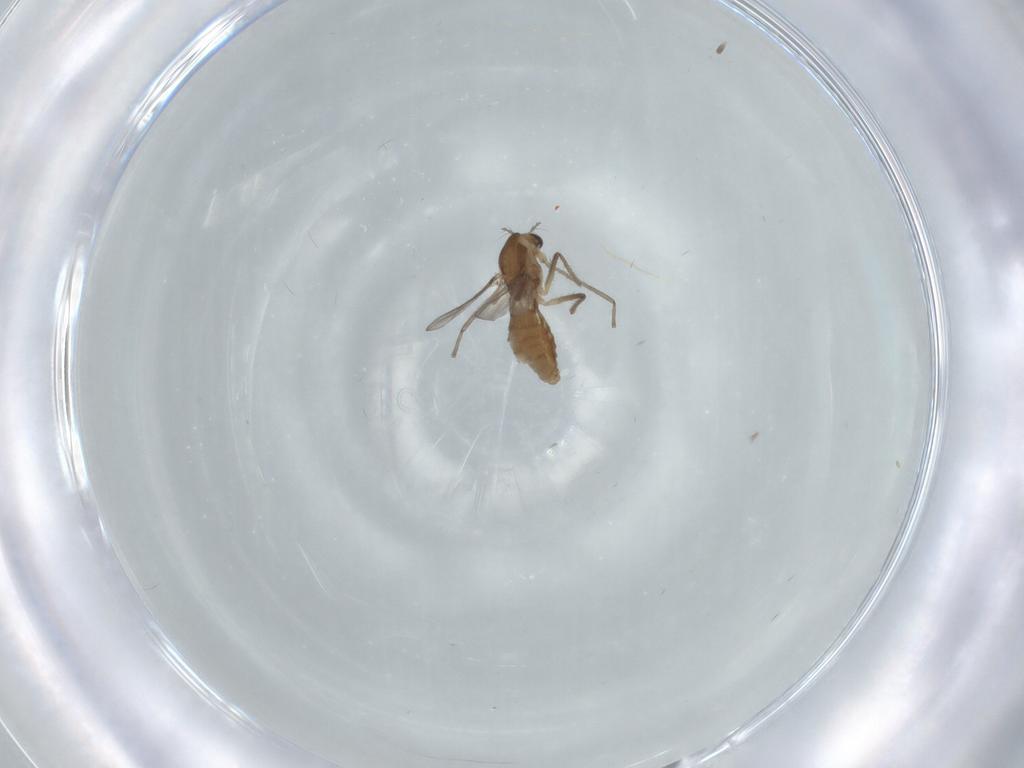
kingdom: Animalia
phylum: Arthropoda
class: Insecta
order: Diptera
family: Chironomidae
